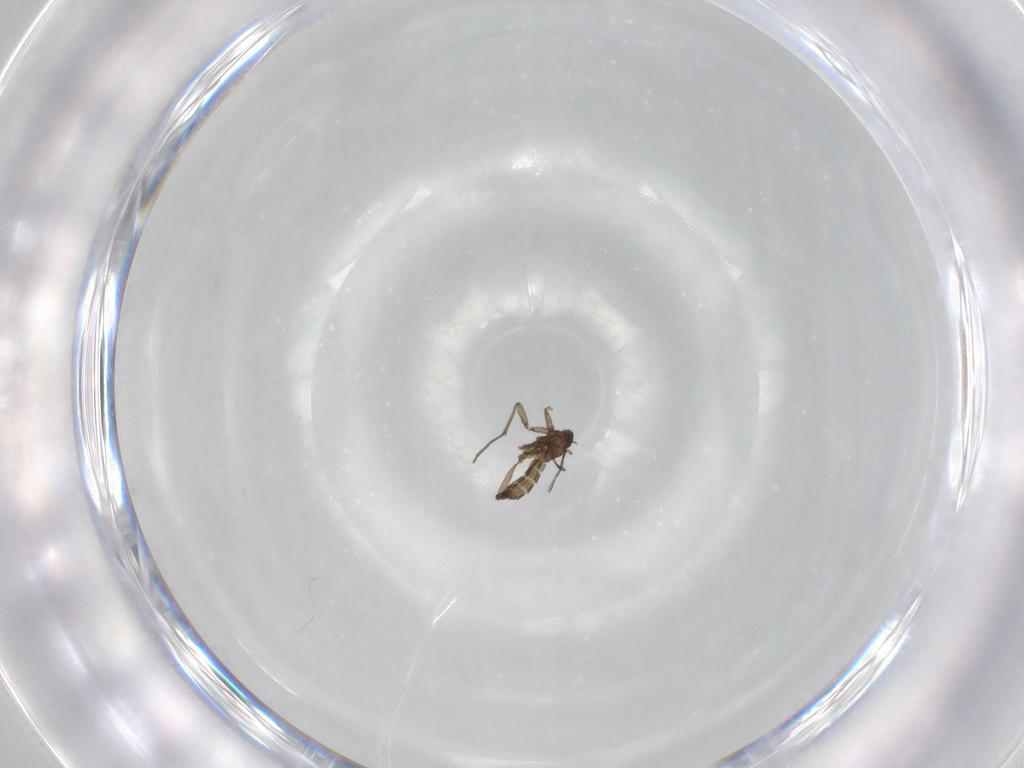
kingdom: Animalia
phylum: Arthropoda
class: Insecta
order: Diptera
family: Sciaridae
